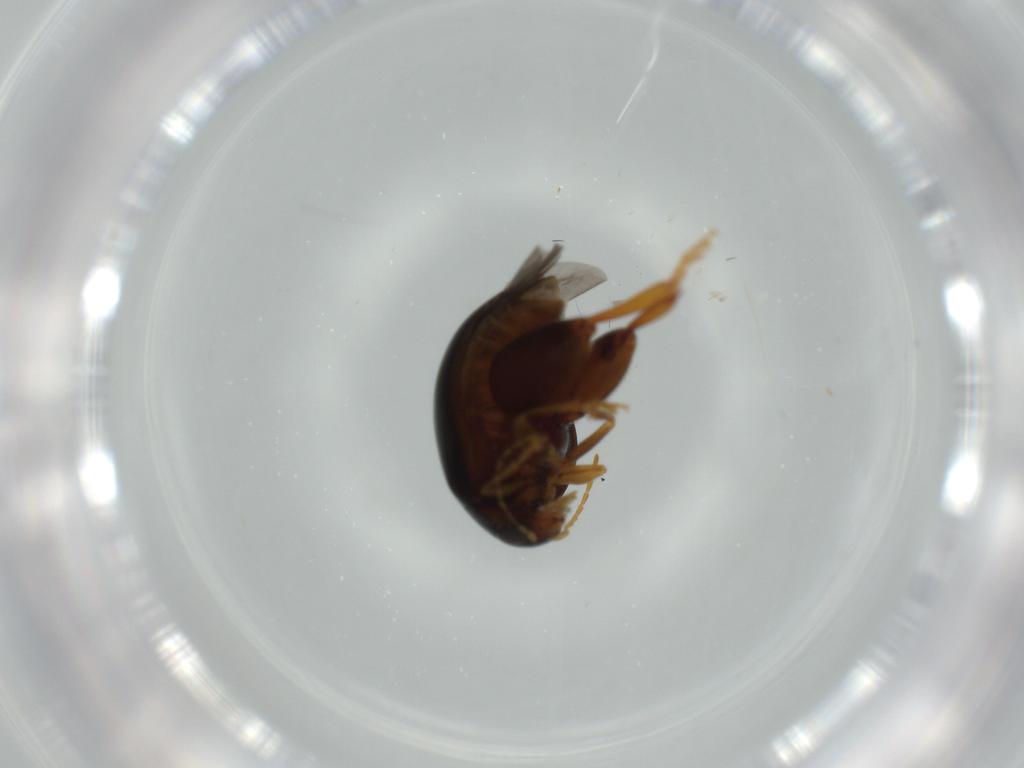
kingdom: Animalia
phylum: Arthropoda
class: Insecta
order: Coleoptera
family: Chrysomelidae
